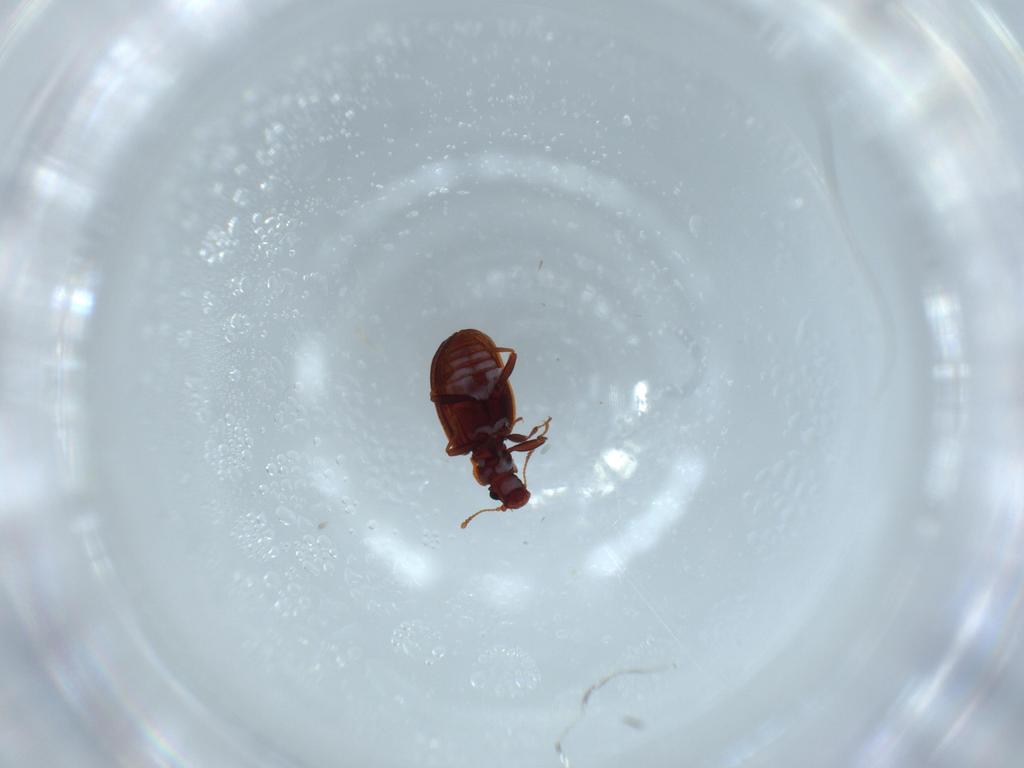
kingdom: Animalia
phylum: Arthropoda
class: Insecta
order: Coleoptera
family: Latridiidae
